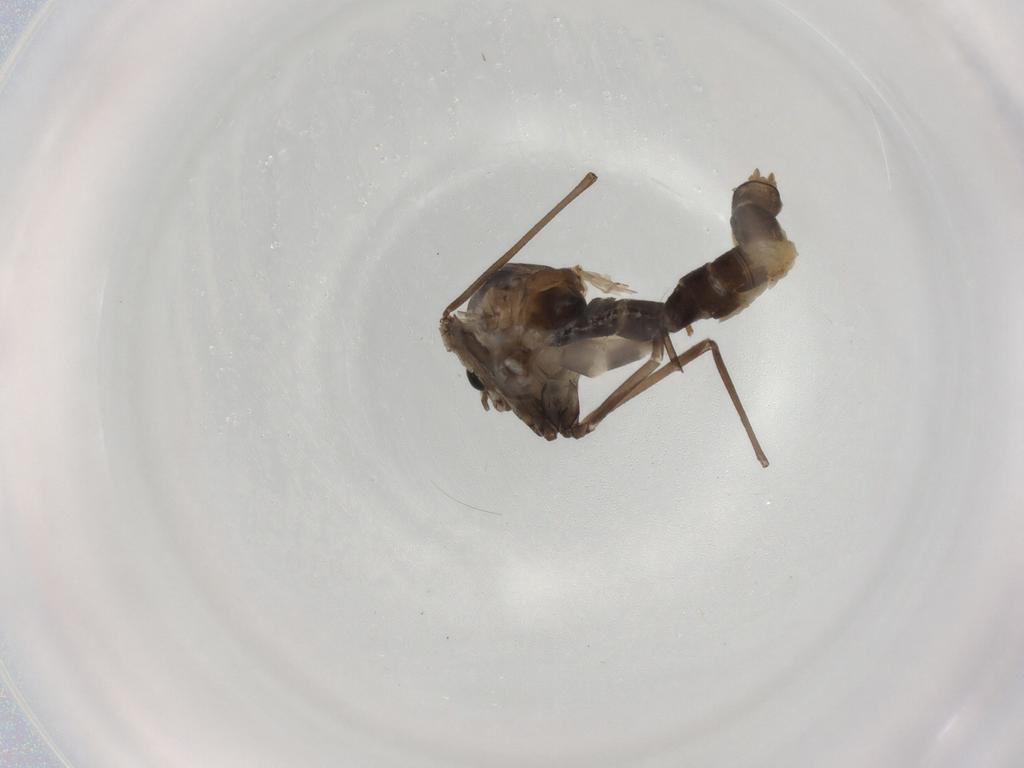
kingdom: Animalia
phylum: Arthropoda
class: Insecta
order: Diptera
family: Chironomidae
